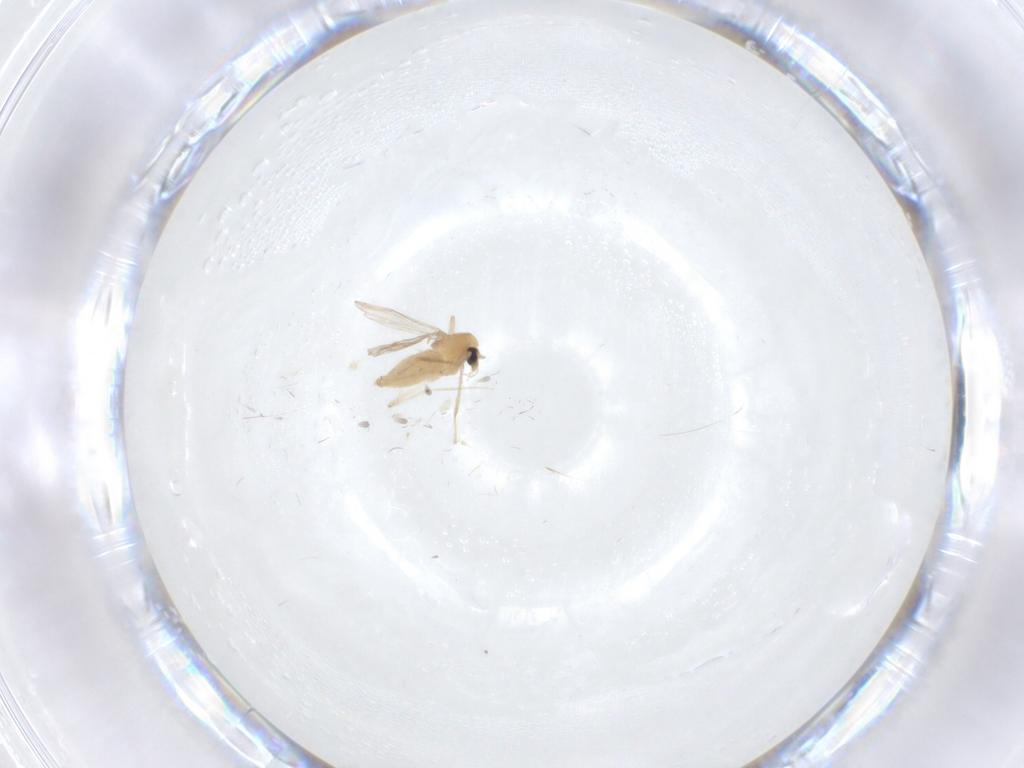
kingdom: Animalia
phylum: Arthropoda
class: Insecta
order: Diptera
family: Chironomidae
